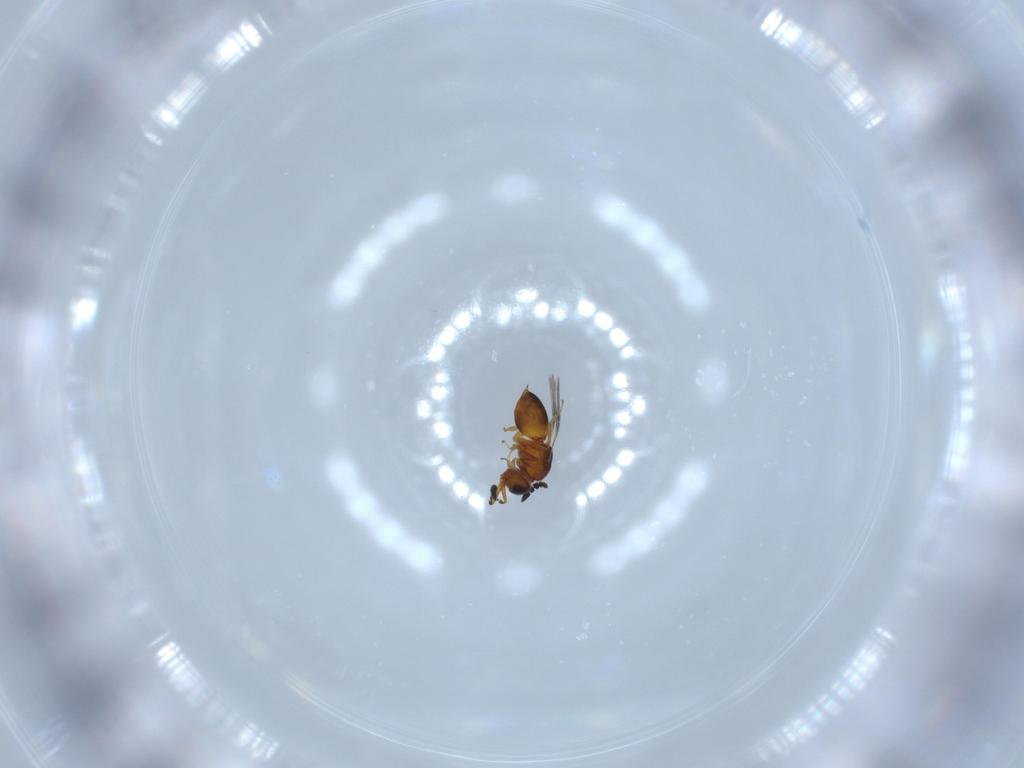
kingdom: Animalia
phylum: Arthropoda
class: Insecta
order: Hymenoptera
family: Ceraphronidae
